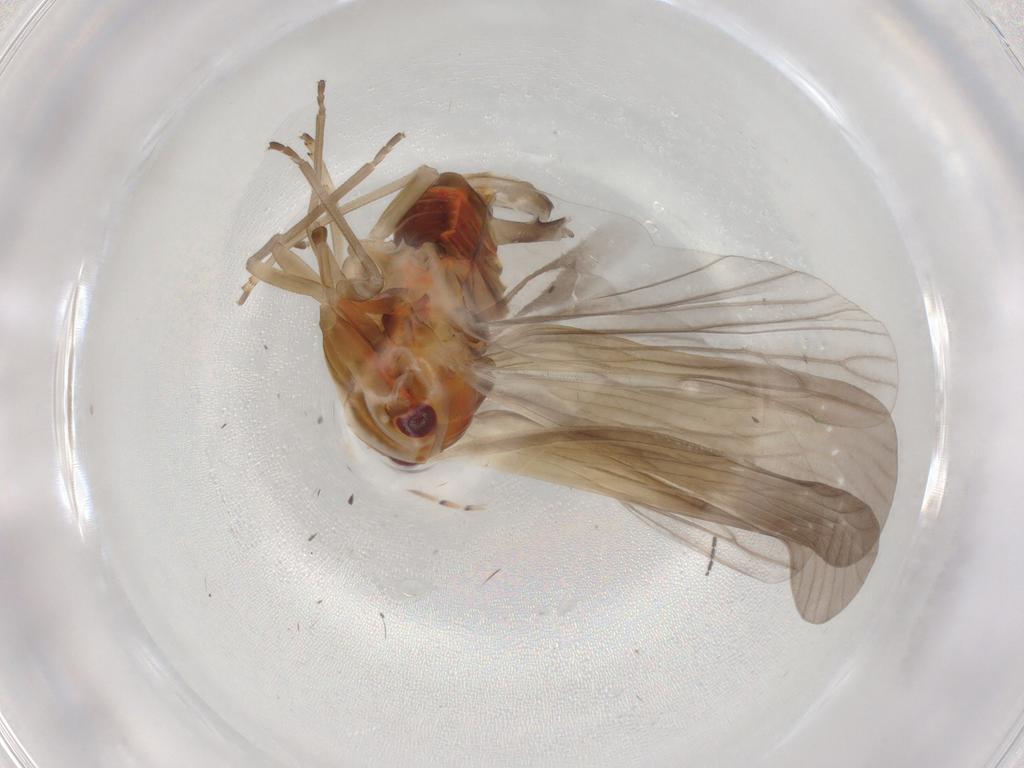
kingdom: Animalia
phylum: Arthropoda
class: Insecta
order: Hemiptera
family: Derbidae
